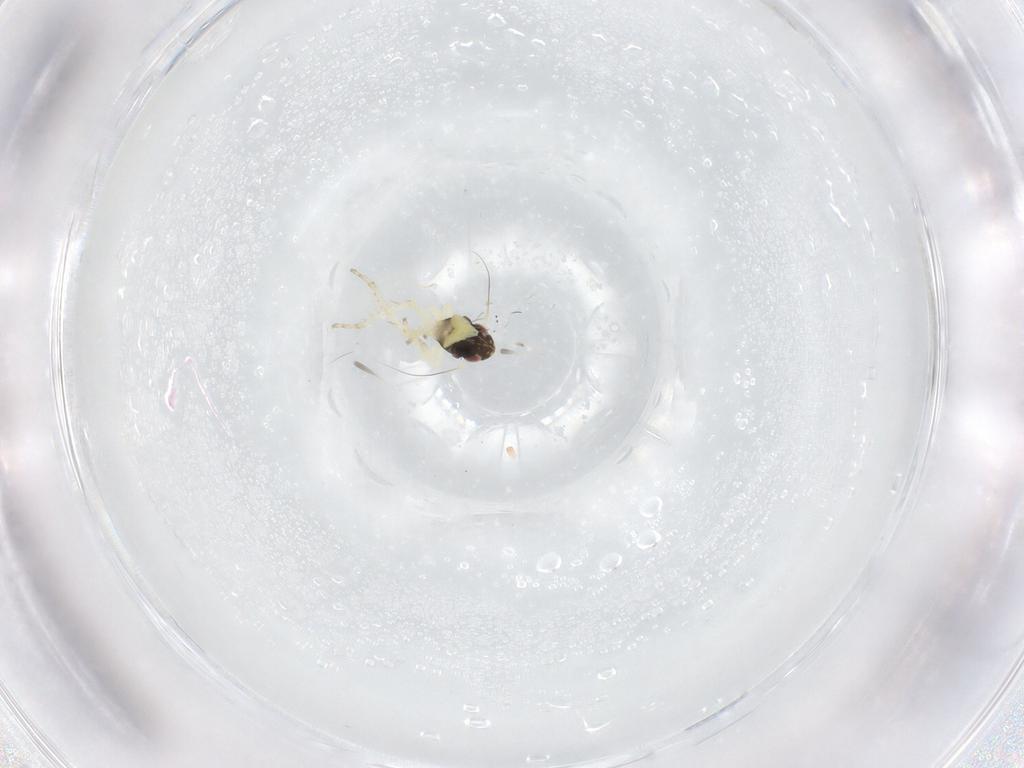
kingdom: Animalia
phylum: Arthropoda
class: Insecta
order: Hemiptera
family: Cicadellidae
